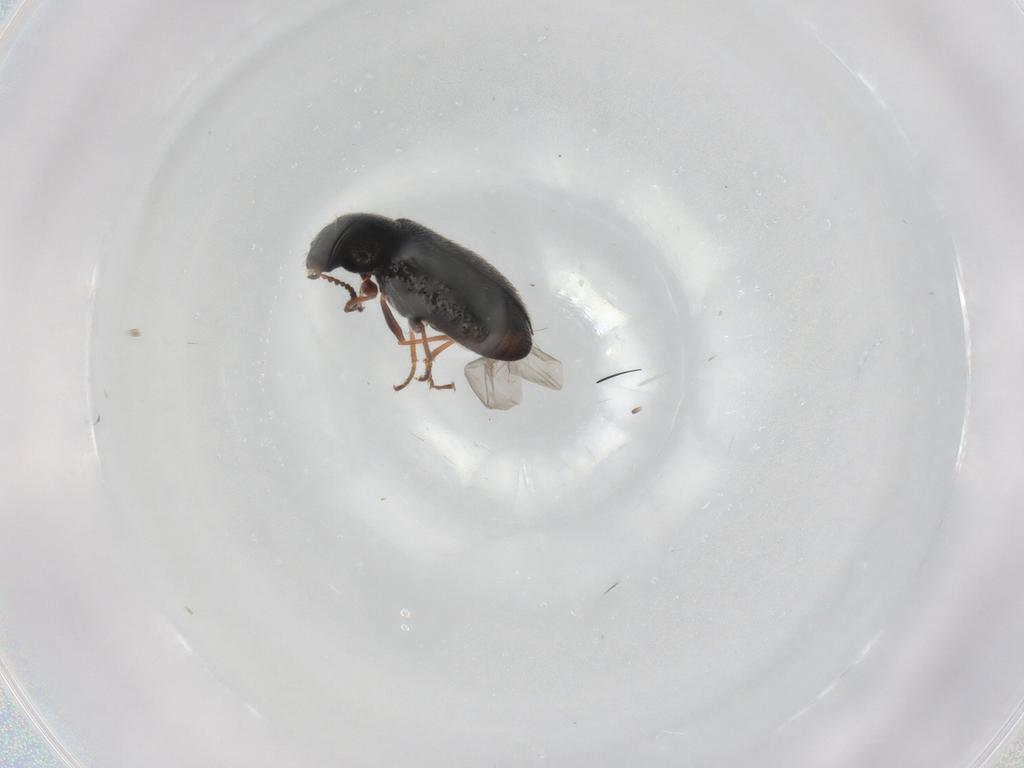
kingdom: Animalia
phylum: Arthropoda
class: Insecta
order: Coleoptera
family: Melyridae
